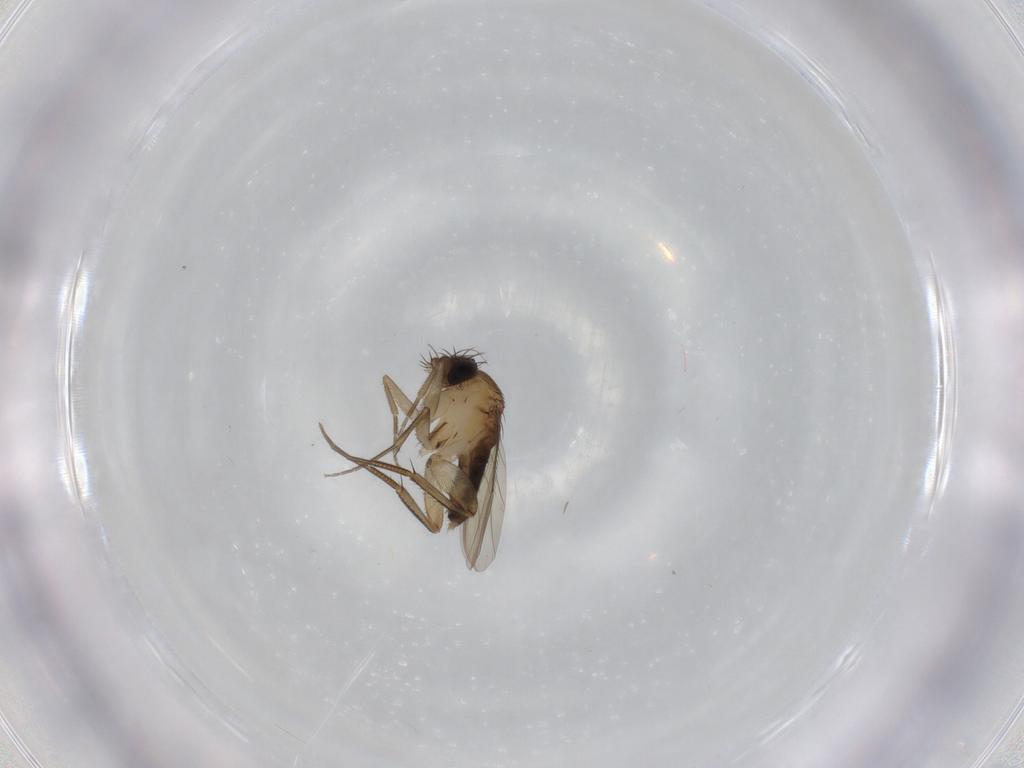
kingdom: Animalia
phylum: Arthropoda
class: Insecta
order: Diptera
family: Phoridae
